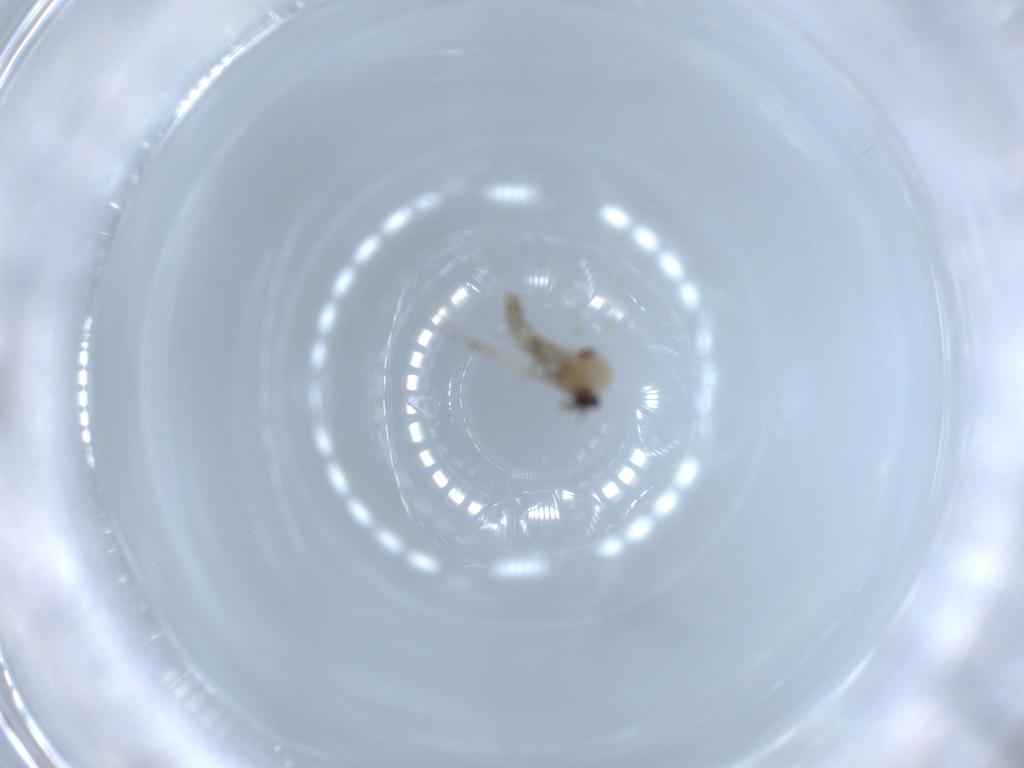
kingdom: Animalia
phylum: Arthropoda
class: Insecta
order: Diptera
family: Ceratopogonidae
